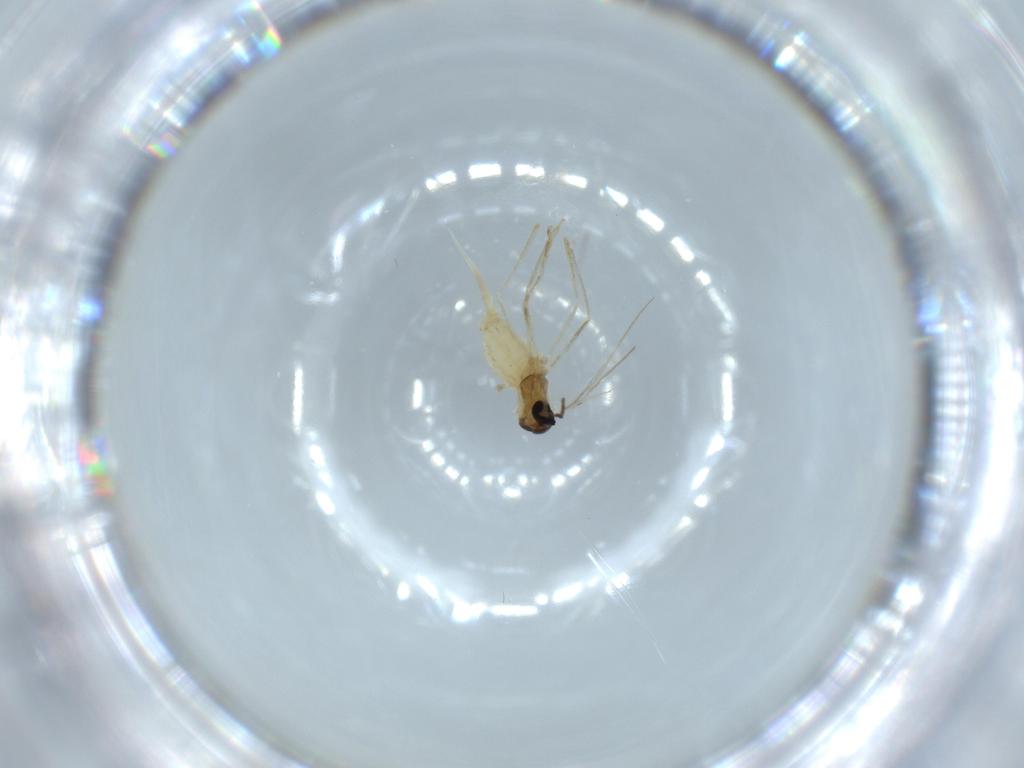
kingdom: Animalia
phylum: Arthropoda
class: Insecta
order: Diptera
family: Cecidomyiidae
